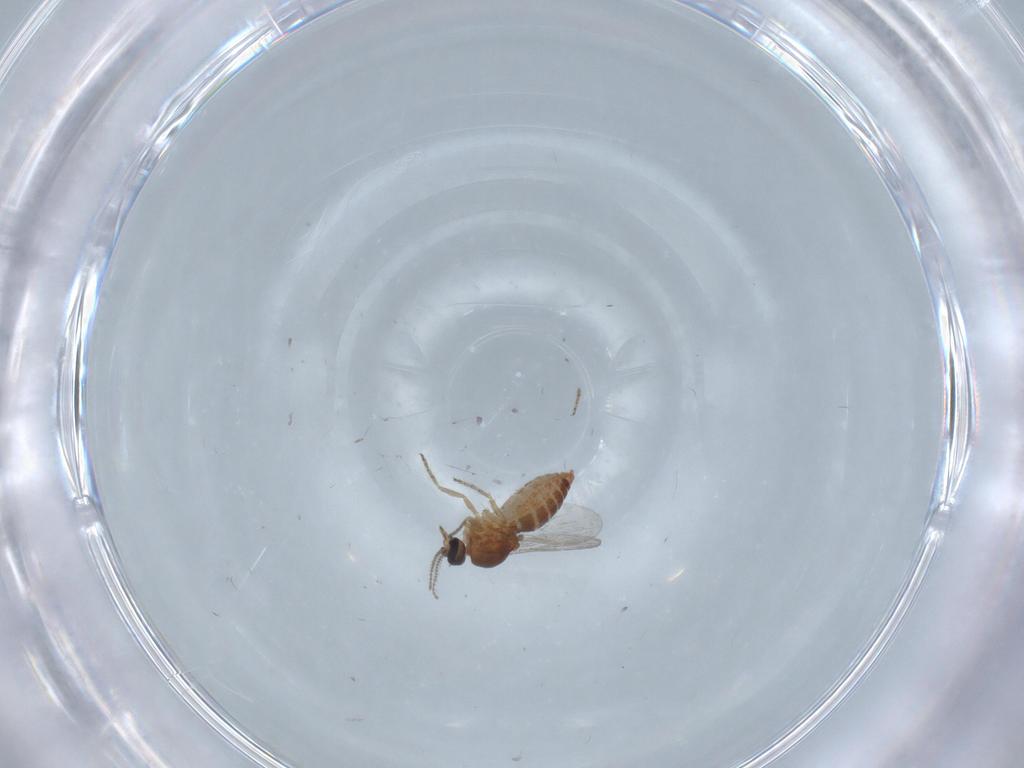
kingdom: Animalia
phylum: Arthropoda
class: Insecta
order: Diptera
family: Ceratopogonidae
